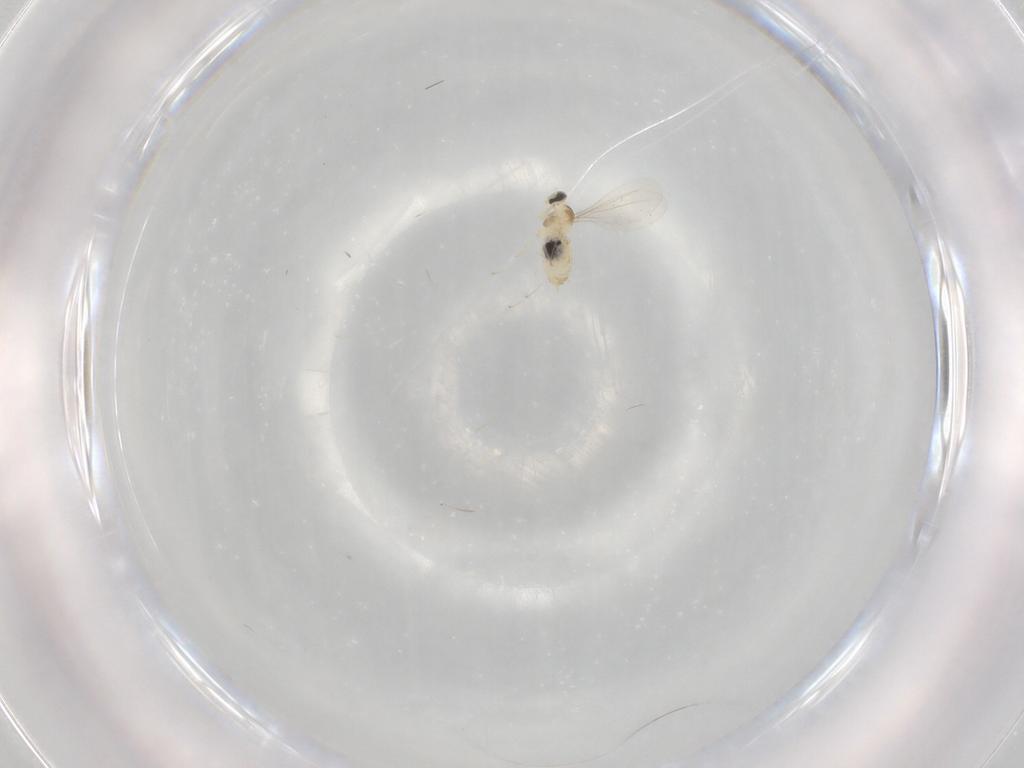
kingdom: Animalia
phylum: Arthropoda
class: Insecta
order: Diptera
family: Cecidomyiidae
